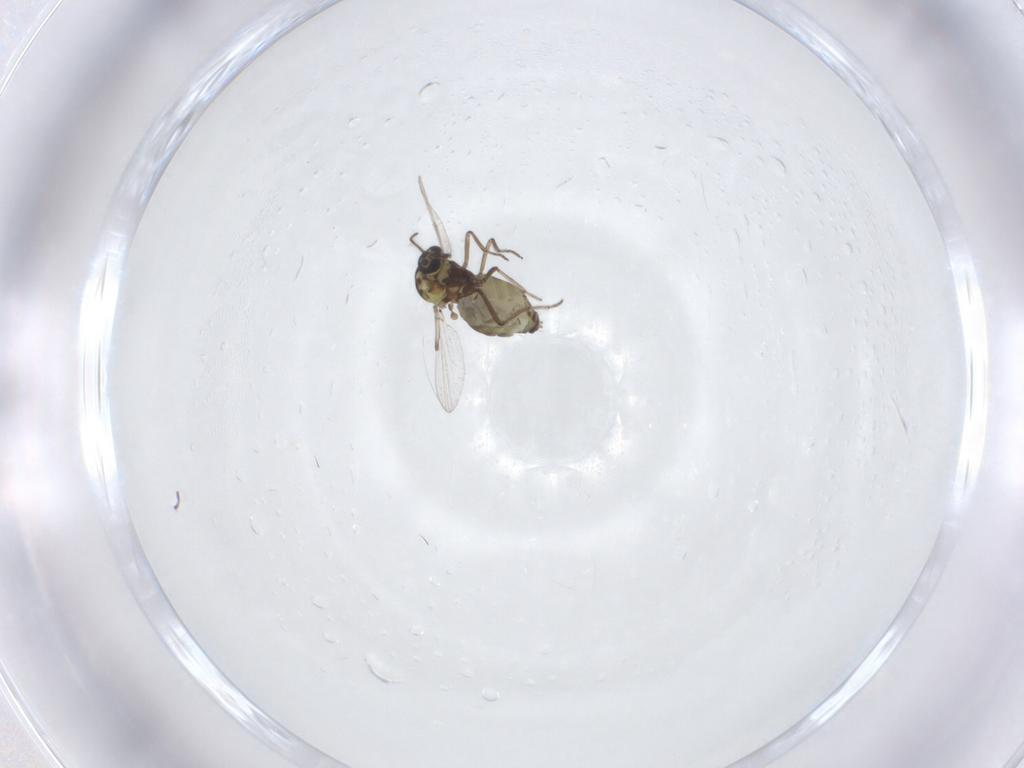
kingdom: Animalia
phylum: Arthropoda
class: Insecta
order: Diptera
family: Ceratopogonidae
